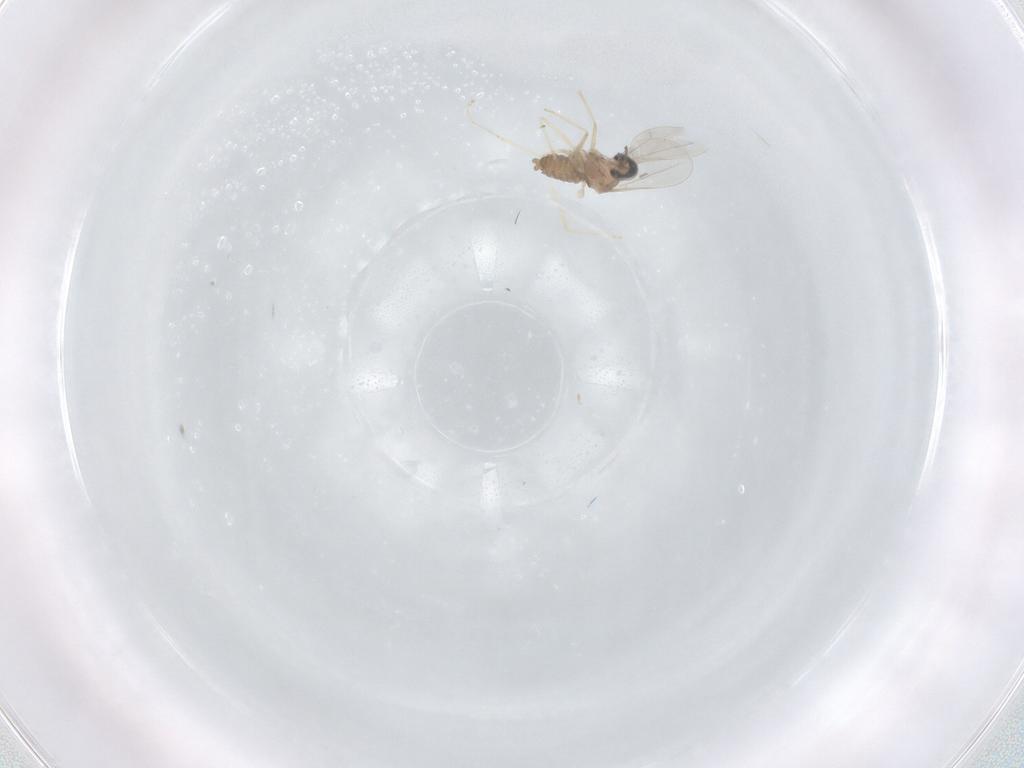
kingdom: Animalia
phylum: Arthropoda
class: Insecta
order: Diptera
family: Cecidomyiidae
